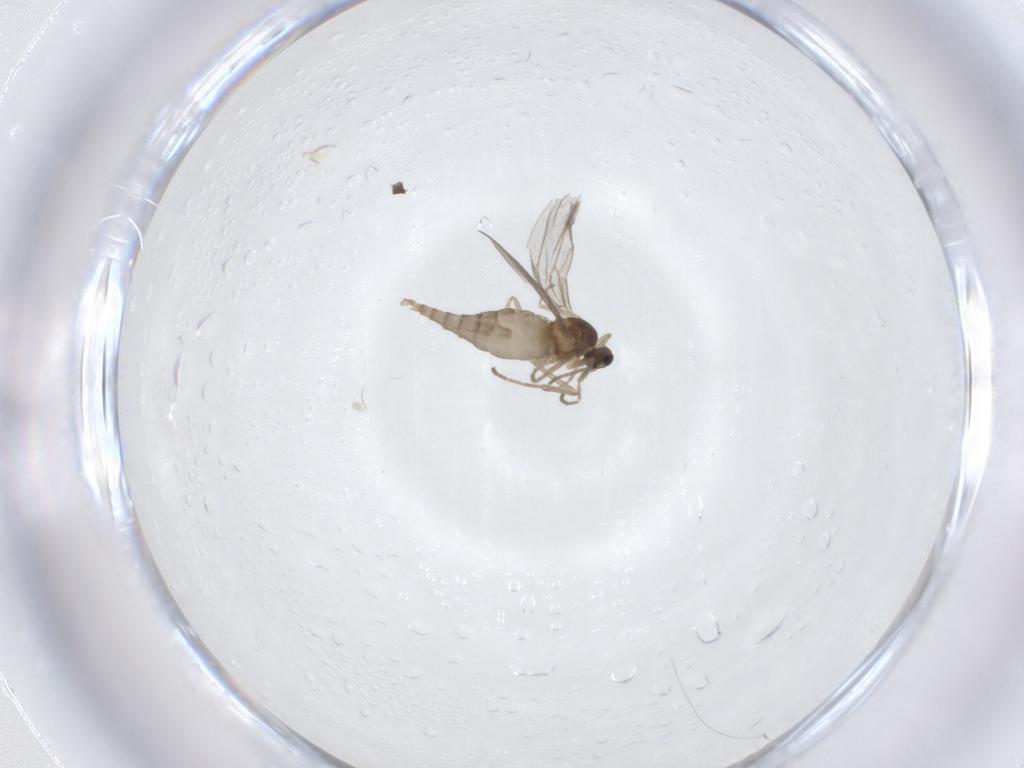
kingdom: Animalia
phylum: Arthropoda
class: Insecta
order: Diptera
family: Cecidomyiidae
